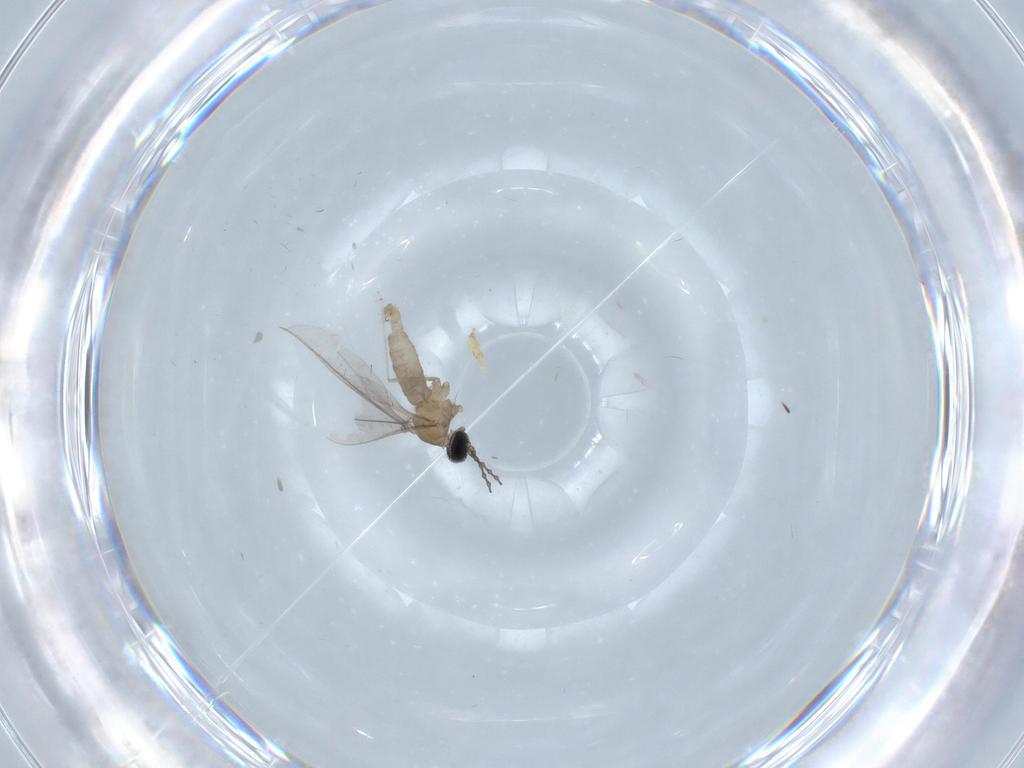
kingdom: Animalia
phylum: Arthropoda
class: Insecta
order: Diptera
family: Cecidomyiidae
